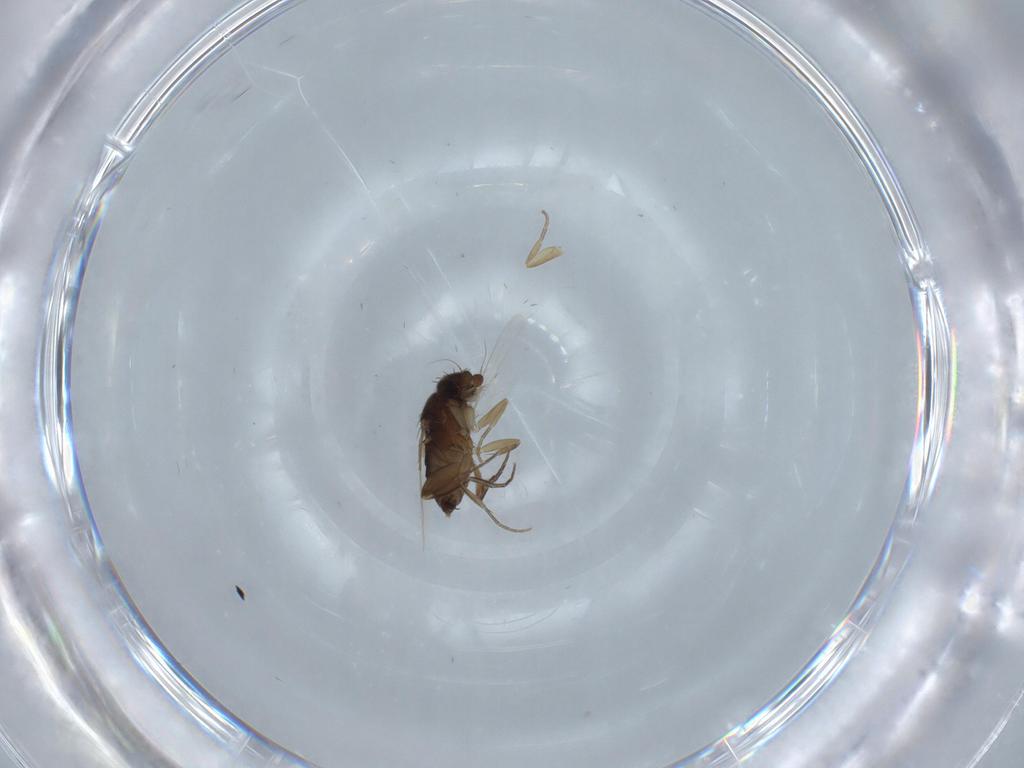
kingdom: Animalia
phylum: Arthropoda
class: Insecta
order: Diptera
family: Phoridae
